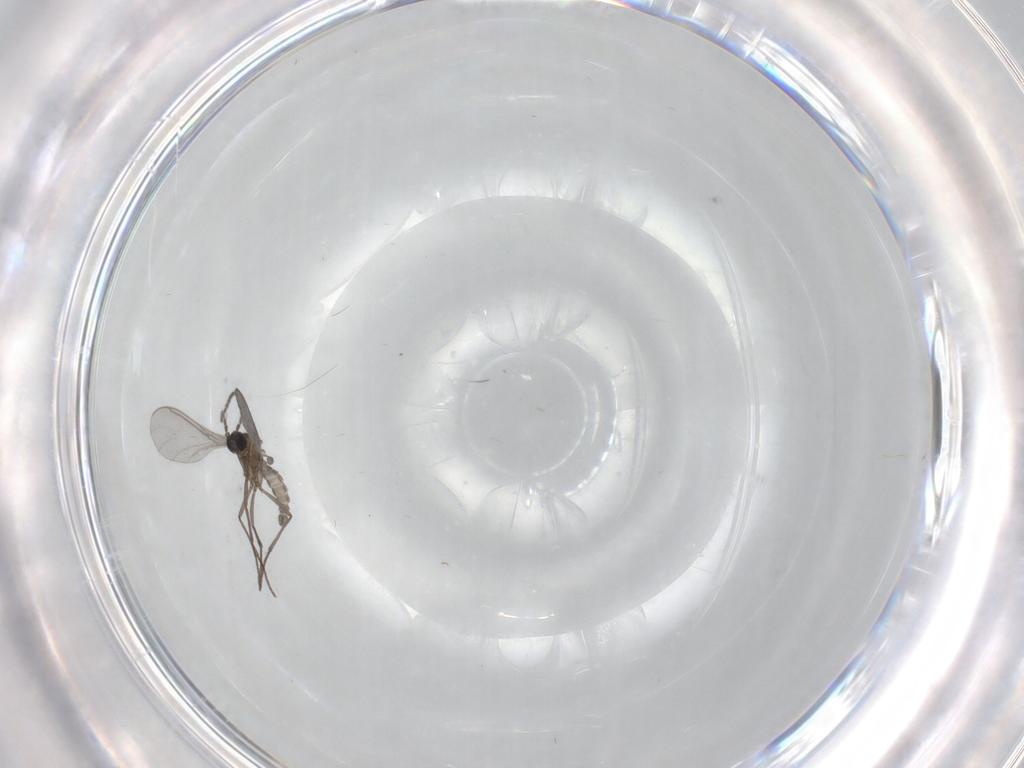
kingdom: Animalia
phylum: Arthropoda
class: Insecta
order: Diptera
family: Sciaridae
